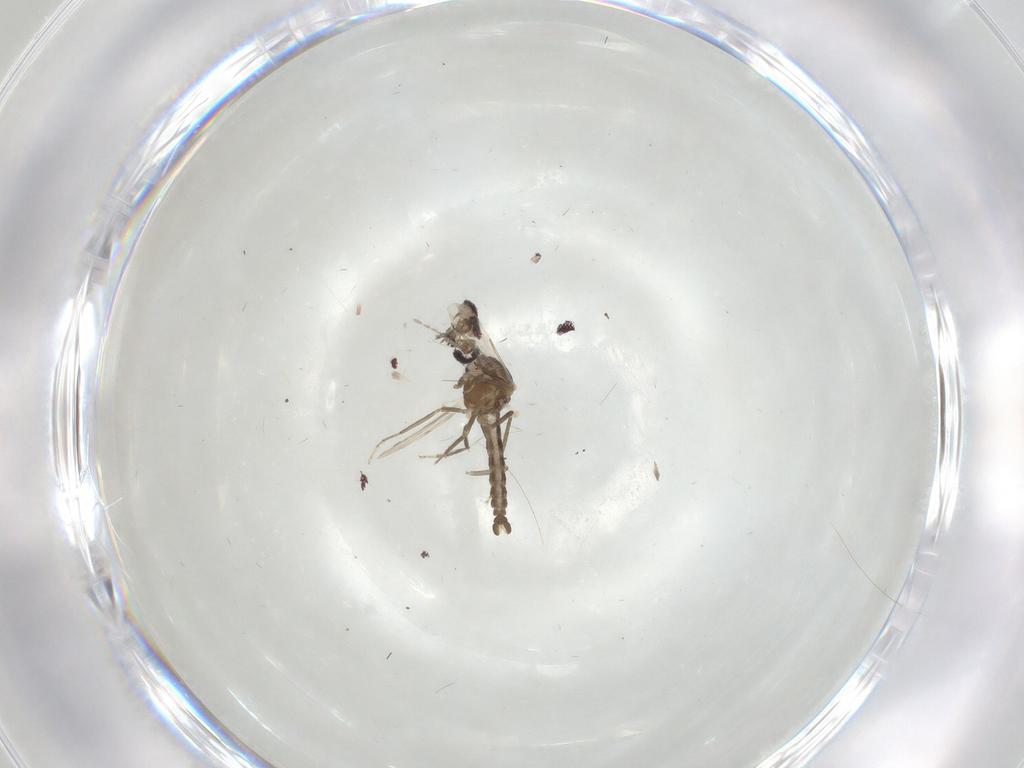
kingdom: Animalia
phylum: Arthropoda
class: Insecta
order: Diptera
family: Ceratopogonidae
